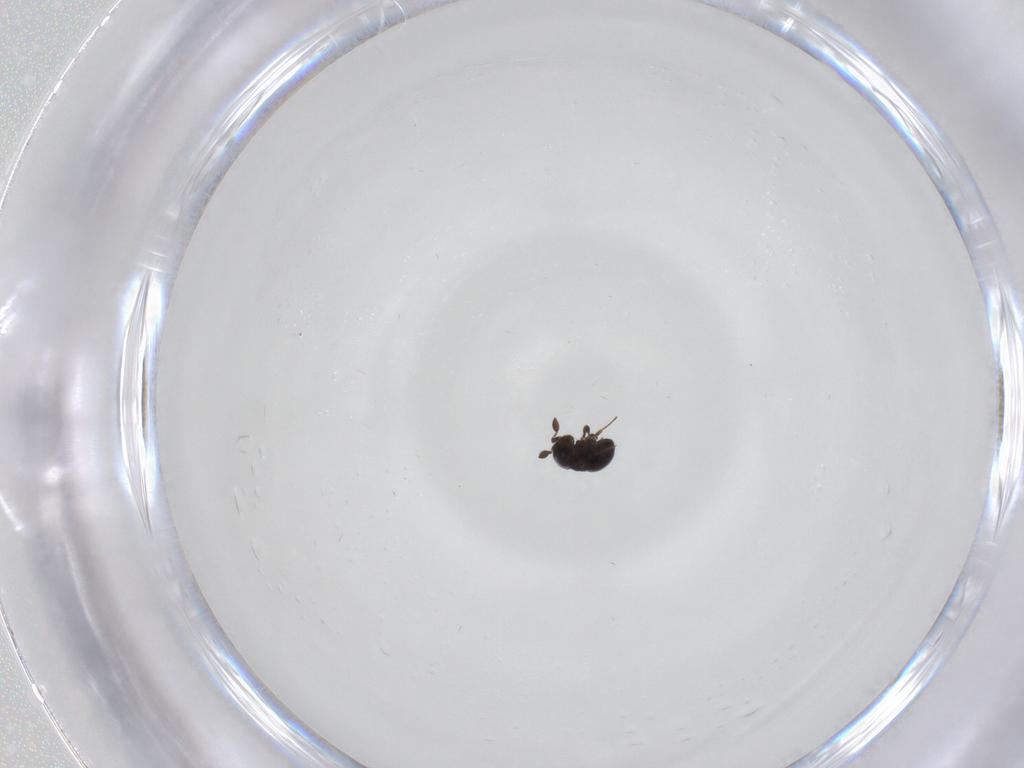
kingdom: Animalia
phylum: Arthropoda
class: Insecta
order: Hymenoptera
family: Scelionidae
